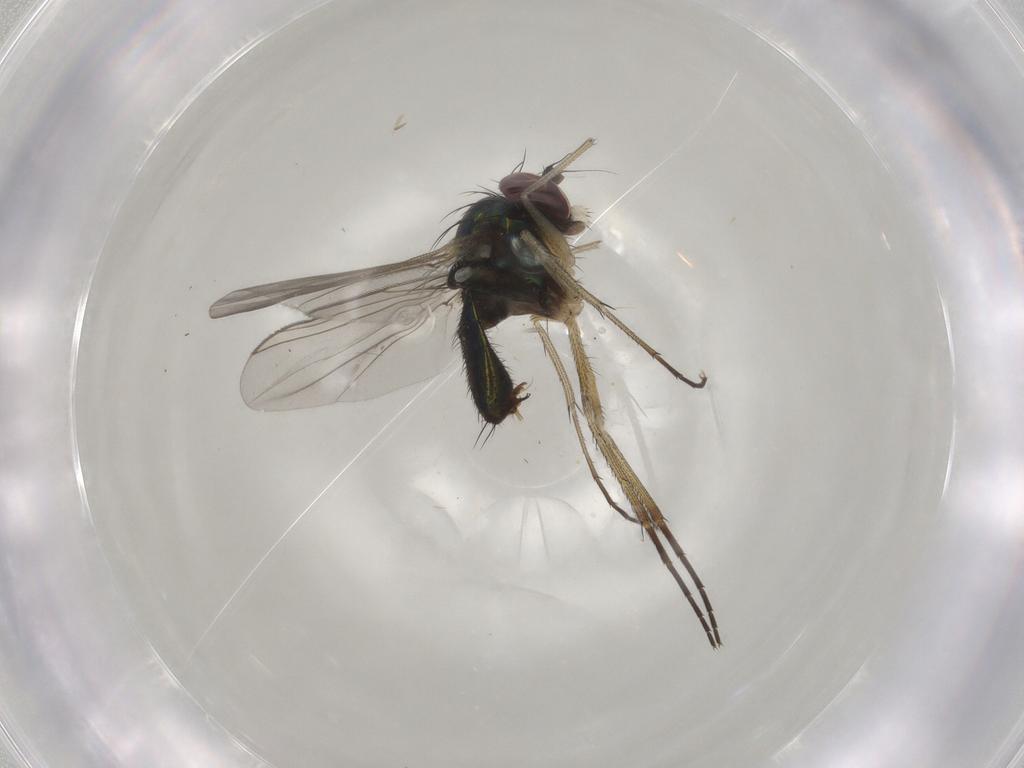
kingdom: Animalia
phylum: Arthropoda
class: Insecta
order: Diptera
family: Dolichopodidae
